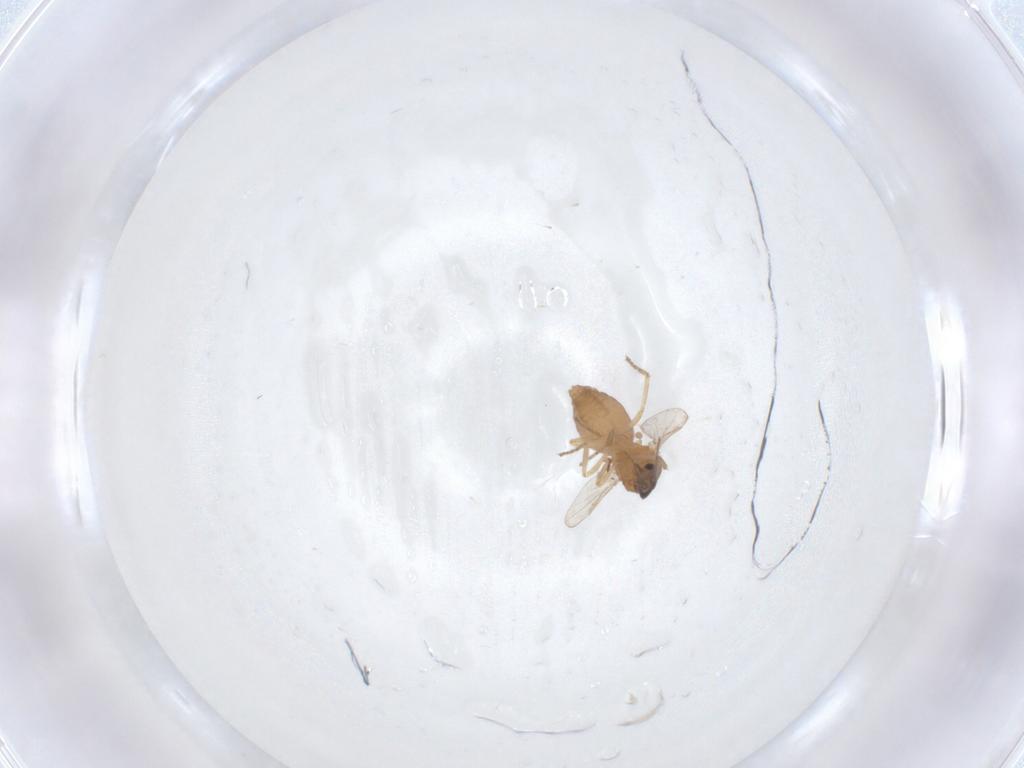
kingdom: Animalia
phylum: Arthropoda
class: Insecta
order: Diptera
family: Ceratopogonidae
